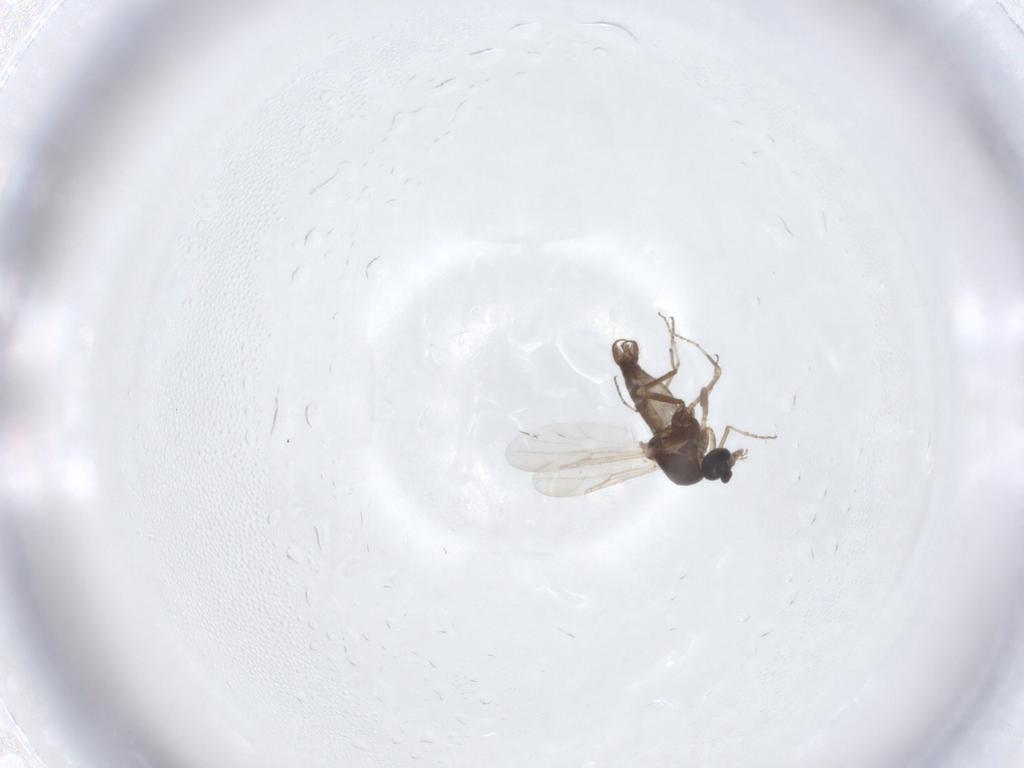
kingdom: Animalia
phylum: Arthropoda
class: Insecta
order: Diptera
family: Ceratopogonidae
